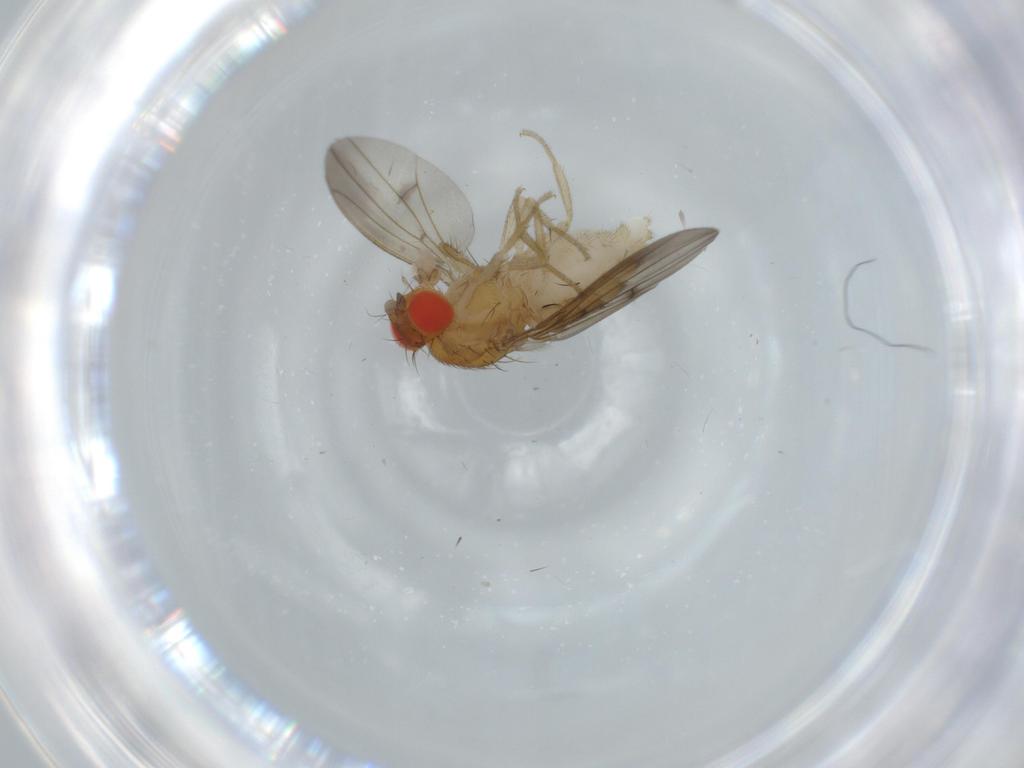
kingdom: Animalia
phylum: Arthropoda
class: Insecta
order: Diptera
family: Drosophilidae
